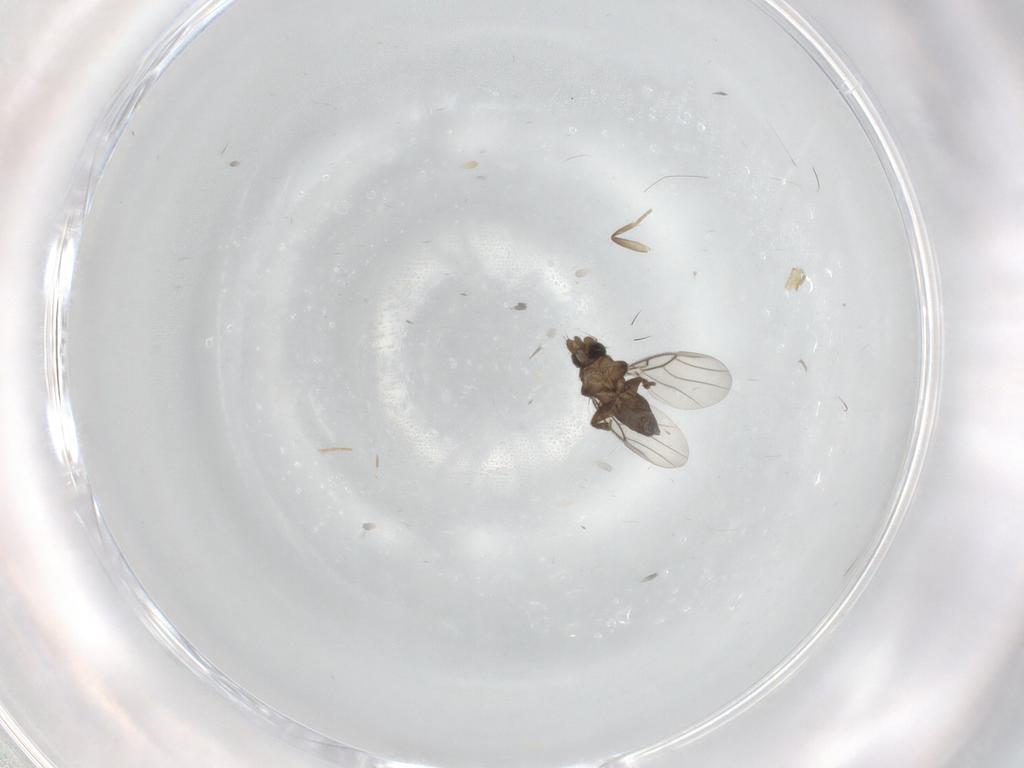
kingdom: Animalia
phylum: Arthropoda
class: Insecta
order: Diptera
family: Phoridae
